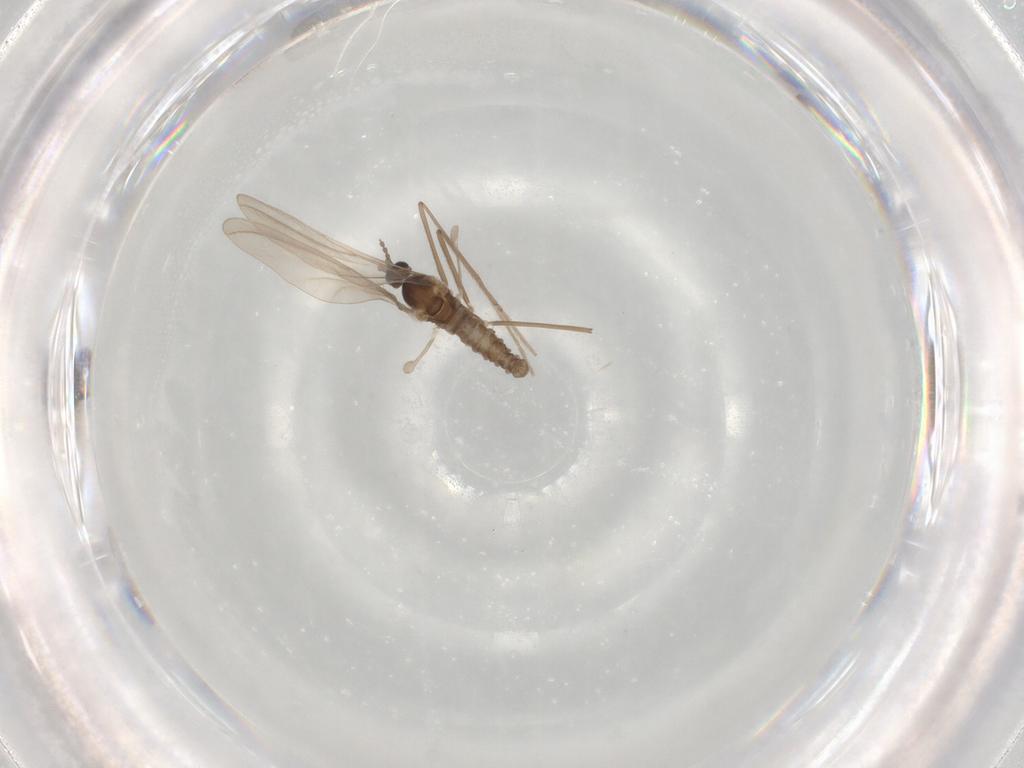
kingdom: Animalia
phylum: Arthropoda
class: Insecta
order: Diptera
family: Cecidomyiidae
